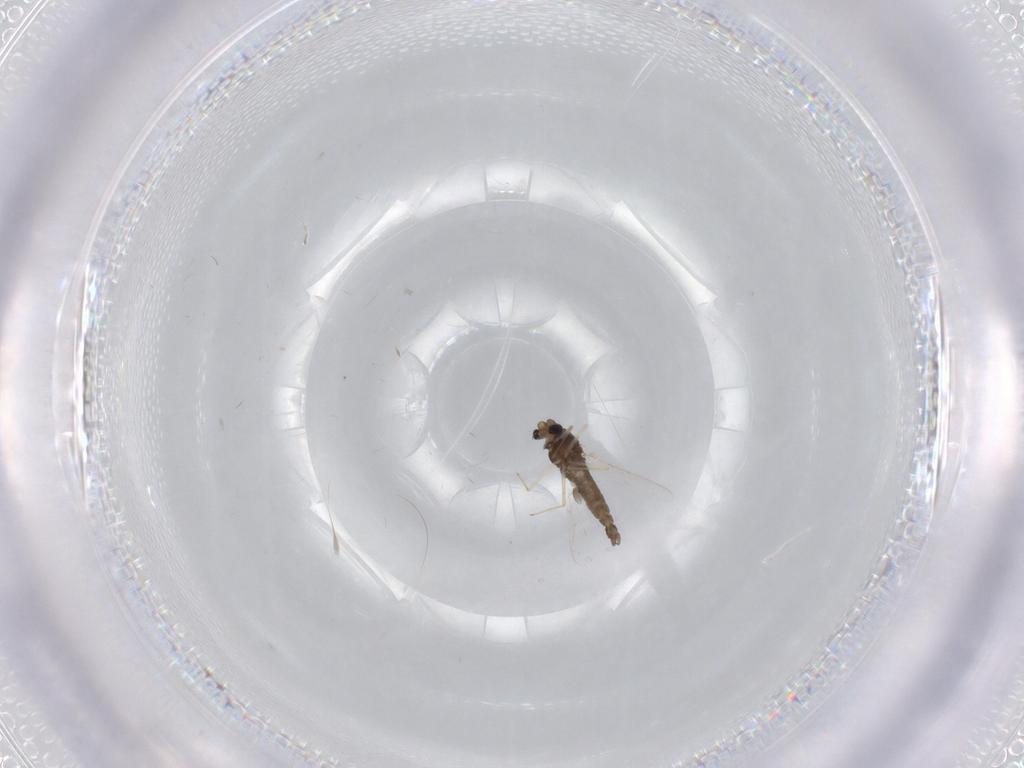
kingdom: Animalia
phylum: Arthropoda
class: Insecta
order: Diptera
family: Chironomidae
